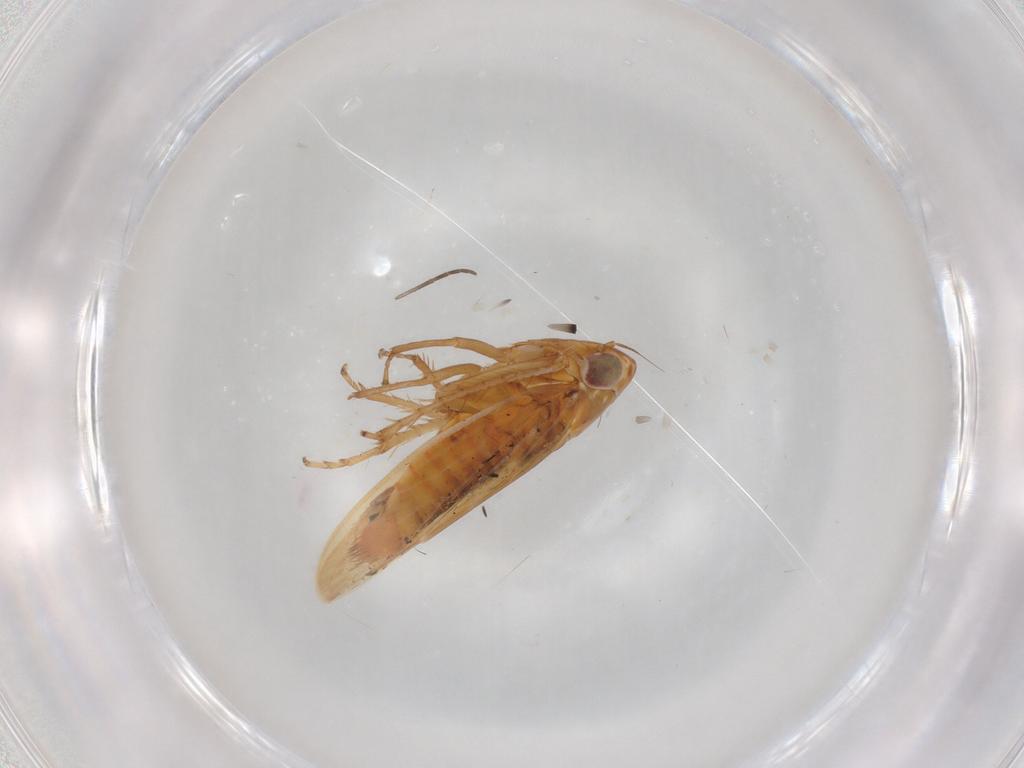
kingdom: Animalia
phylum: Arthropoda
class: Insecta
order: Hemiptera
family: Cicadellidae
